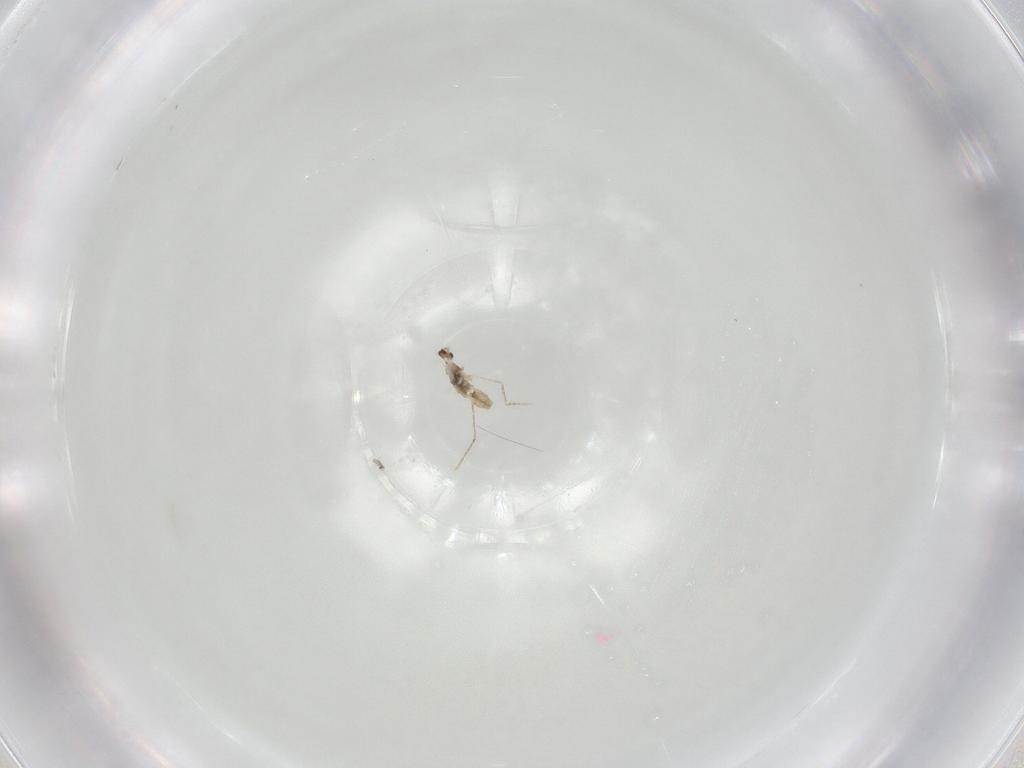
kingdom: Animalia
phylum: Arthropoda
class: Insecta
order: Diptera
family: Cecidomyiidae
